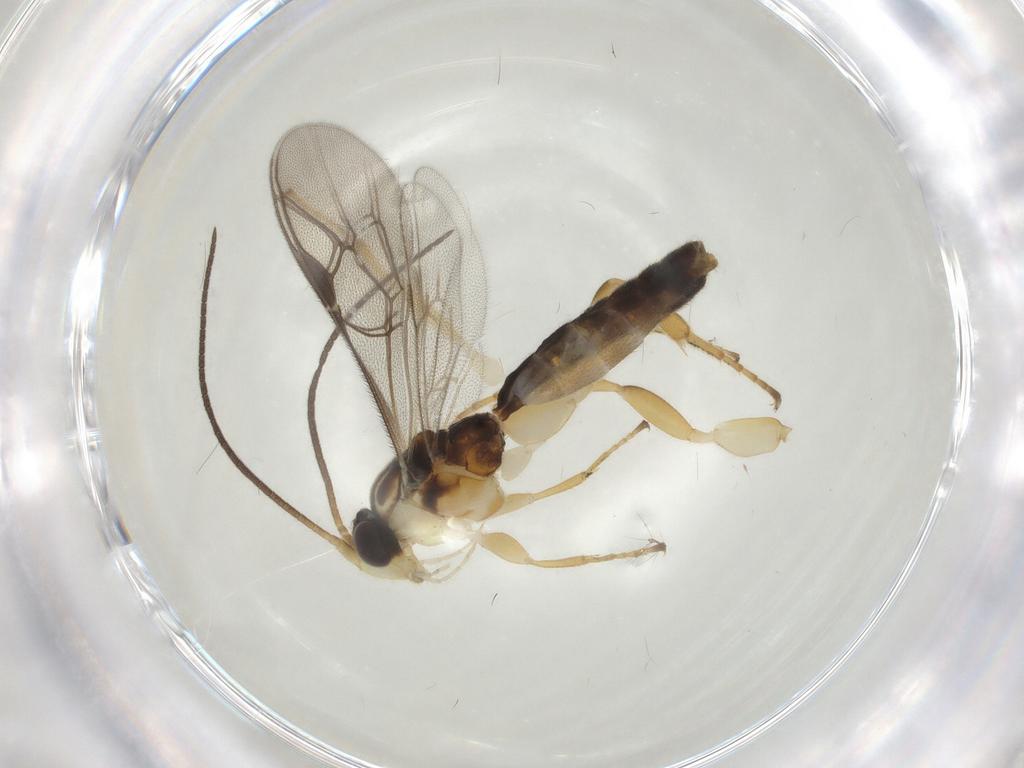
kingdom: Animalia
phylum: Arthropoda
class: Insecta
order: Hymenoptera
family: Ichneumonidae
